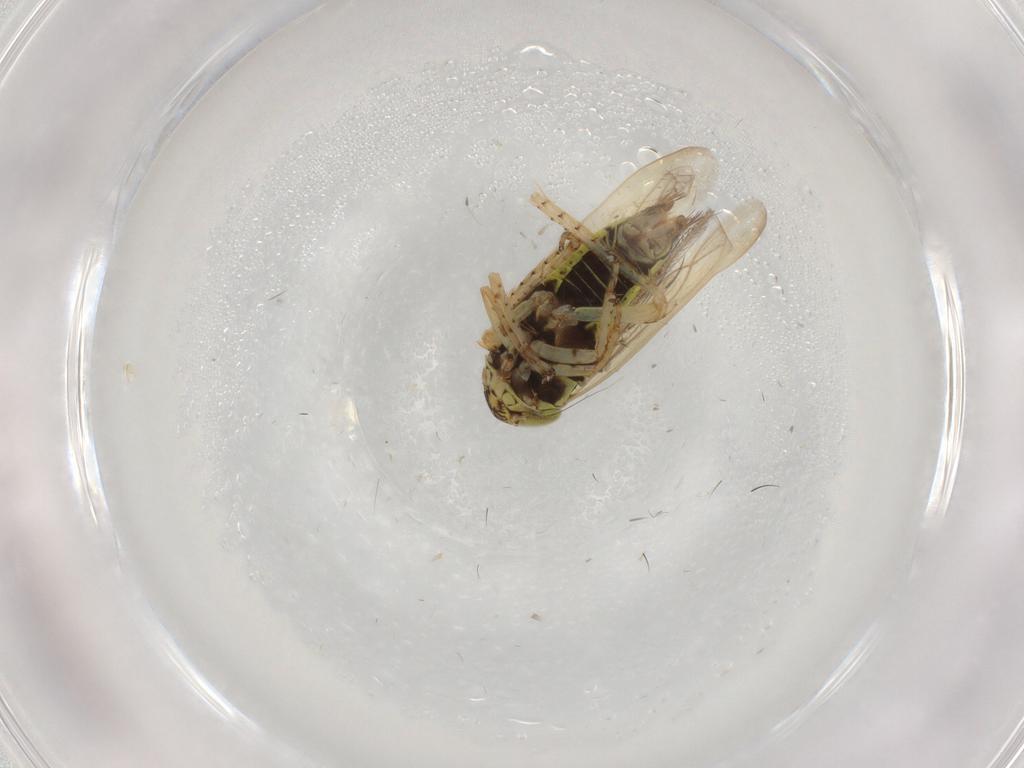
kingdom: Animalia
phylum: Arthropoda
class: Insecta
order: Hemiptera
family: Cicadellidae
